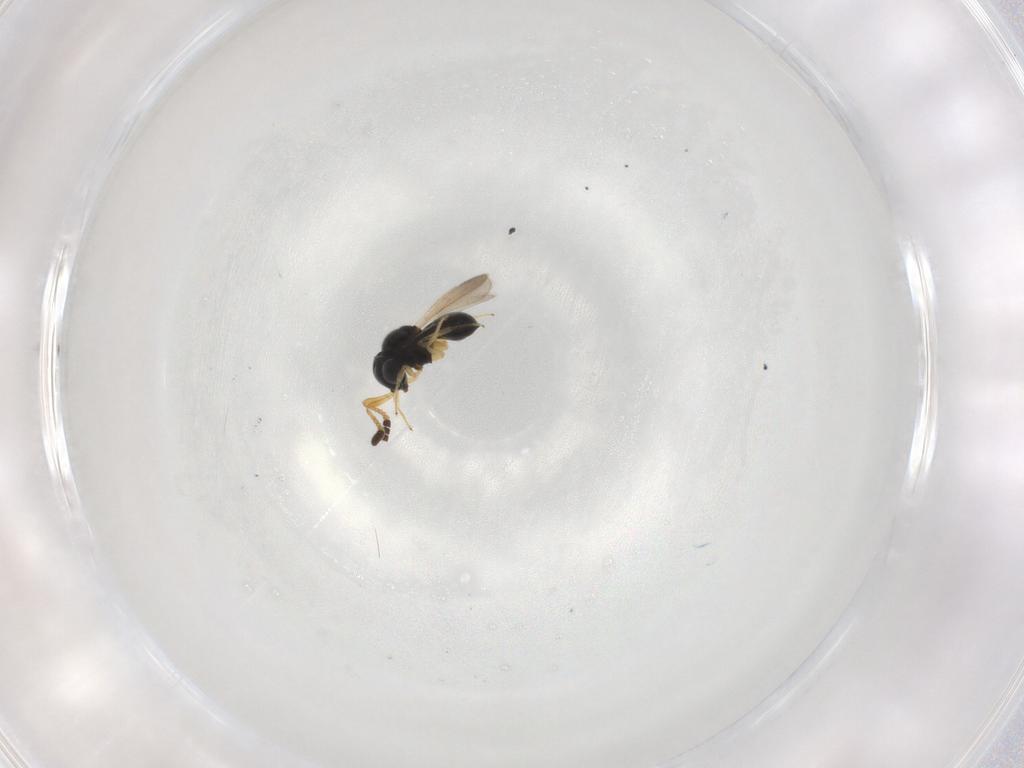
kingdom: Animalia
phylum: Arthropoda
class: Insecta
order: Hymenoptera
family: Scelionidae
